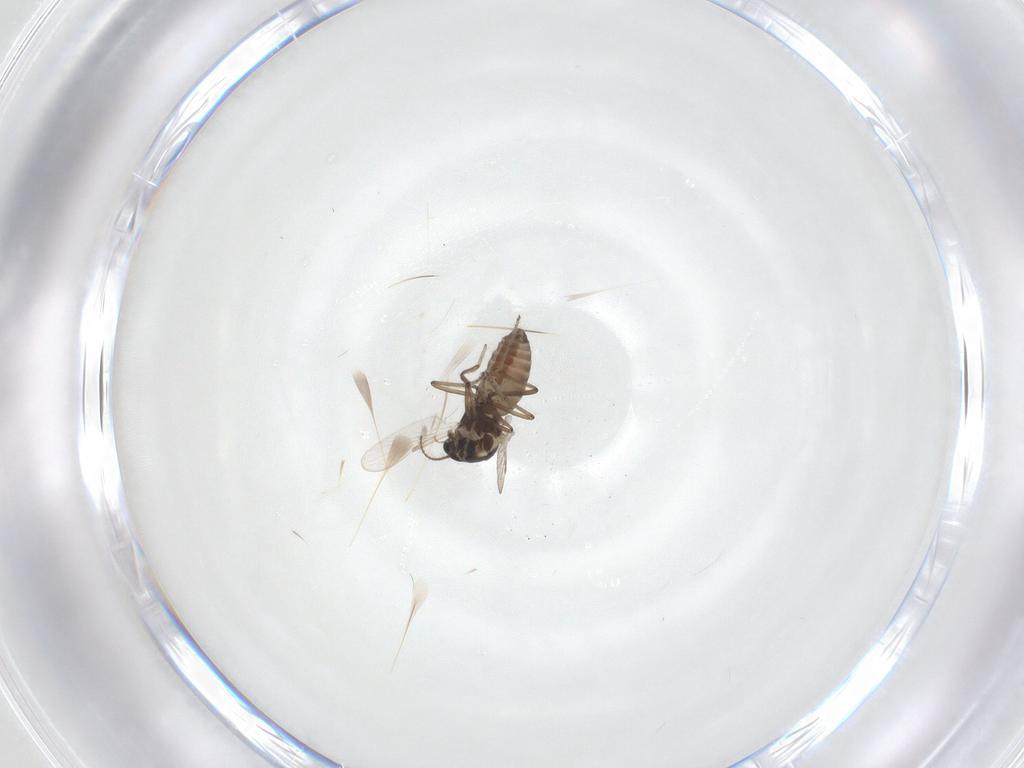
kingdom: Animalia
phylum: Arthropoda
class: Insecta
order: Diptera
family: Ceratopogonidae
